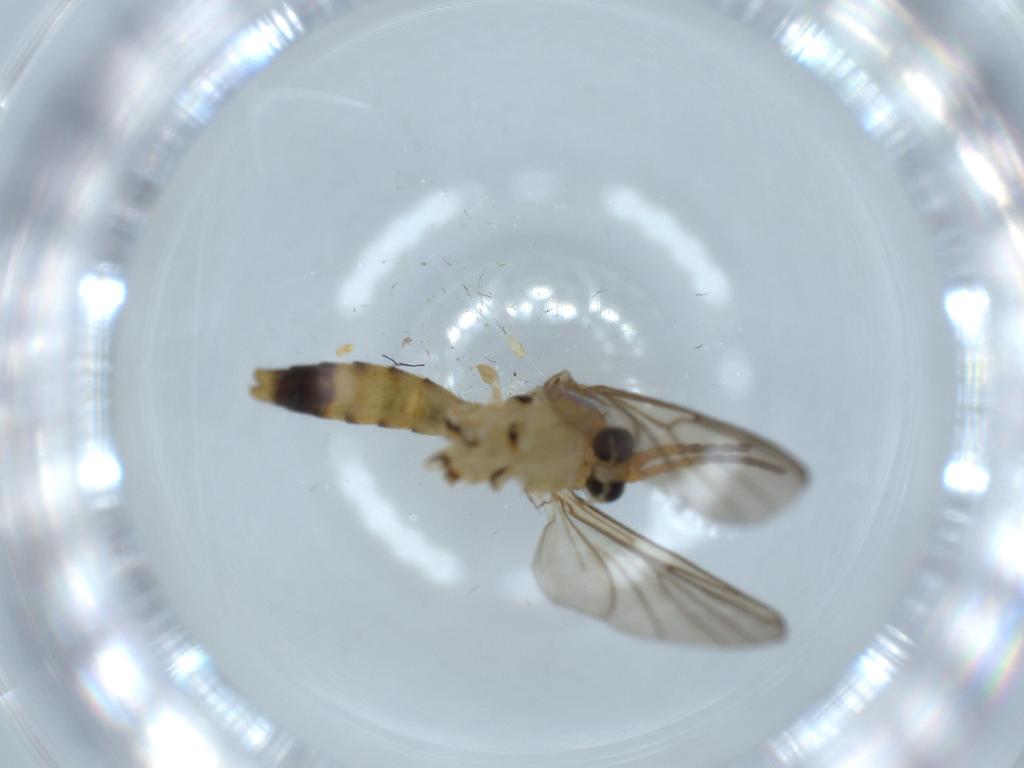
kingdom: Animalia
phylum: Arthropoda
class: Insecta
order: Diptera
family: Mycetophilidae
